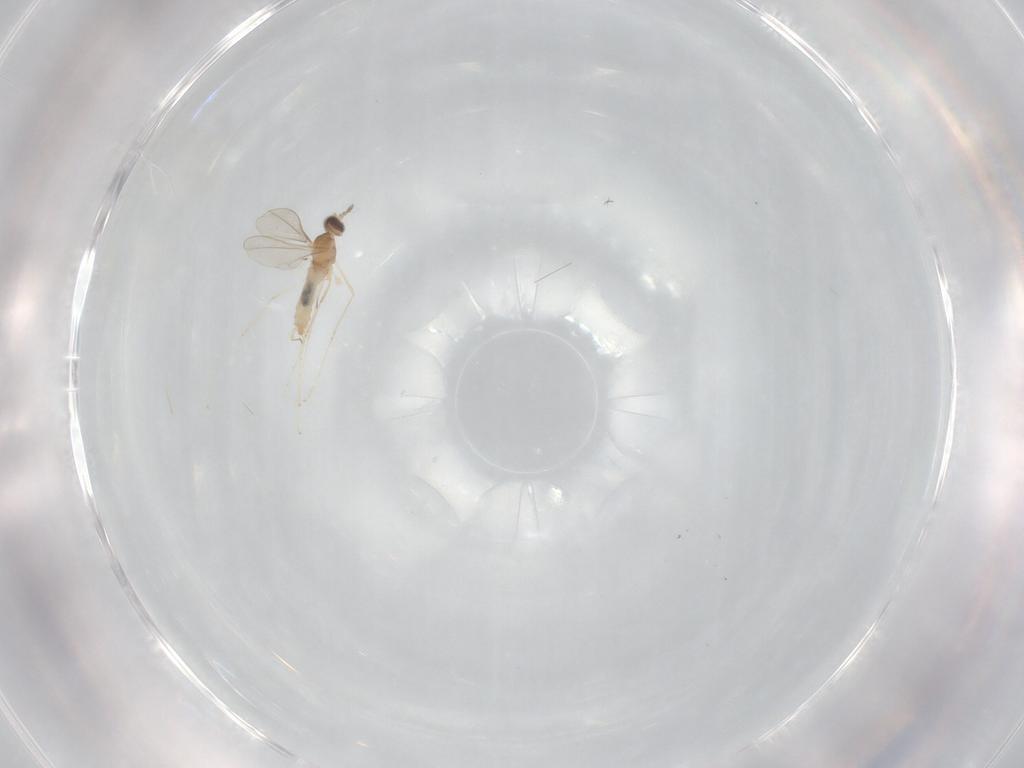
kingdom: Animalia
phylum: Arthropoda
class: Insecta
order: Diptera
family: Cecidomyiidae
